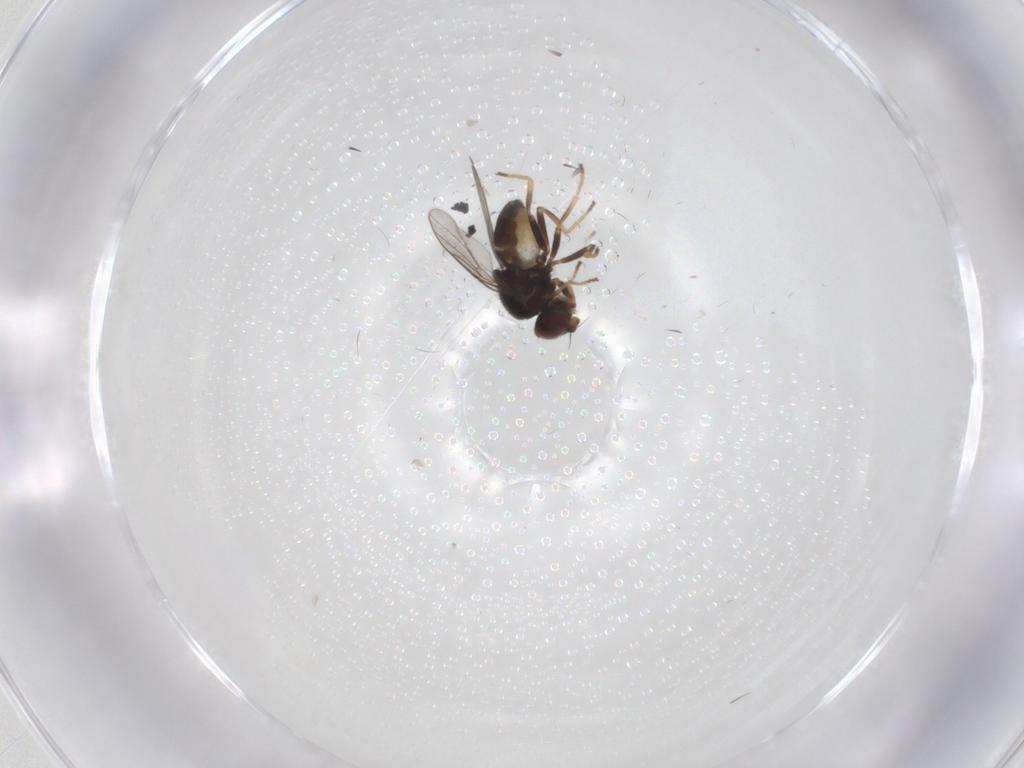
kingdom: Animalia
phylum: Arthropoda
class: Insecta
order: Diptera
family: Chloropidae
